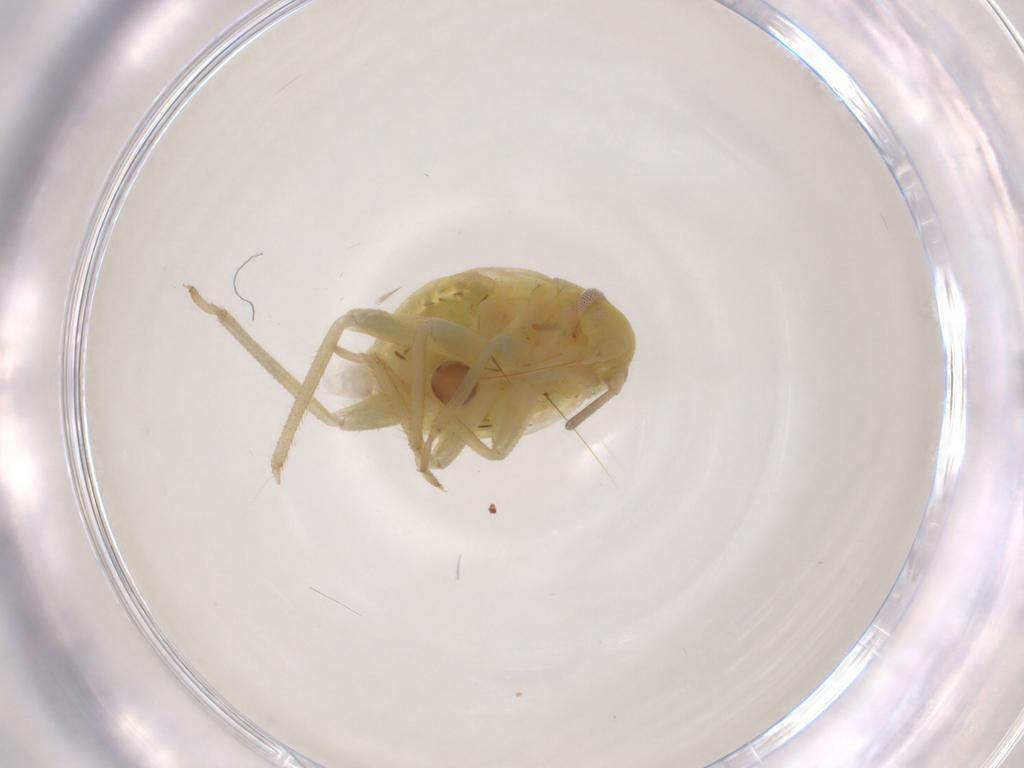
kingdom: Animalia
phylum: Arthropoda
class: Insecta
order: Hemiptera
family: Miridae
